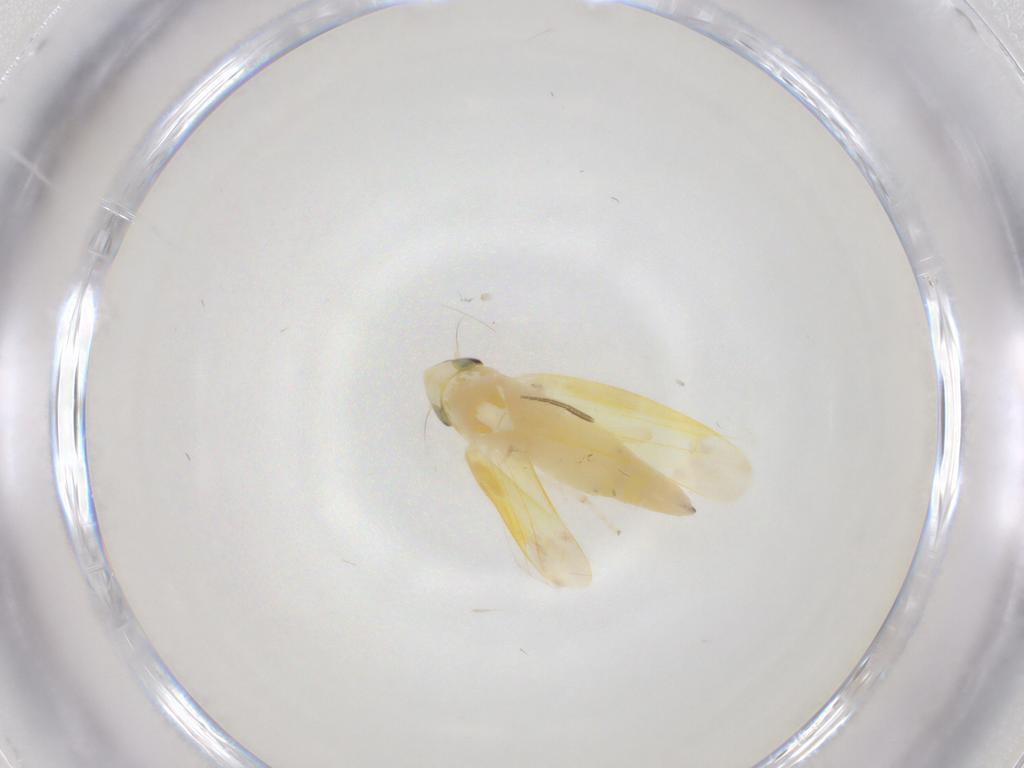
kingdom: Animalia
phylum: Arthropoda
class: Insecta
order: Hemiptera
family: Cicadellidae
